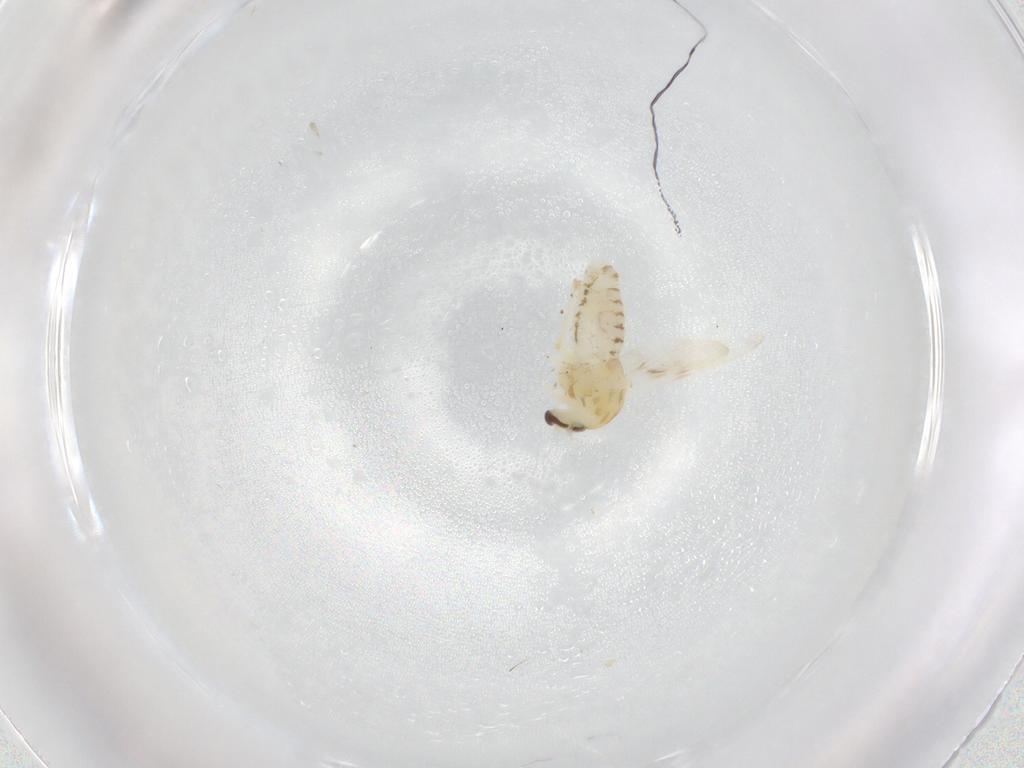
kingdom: Animalia
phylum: Arthropoda
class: Insecta
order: Diptera
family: Chloropidae
